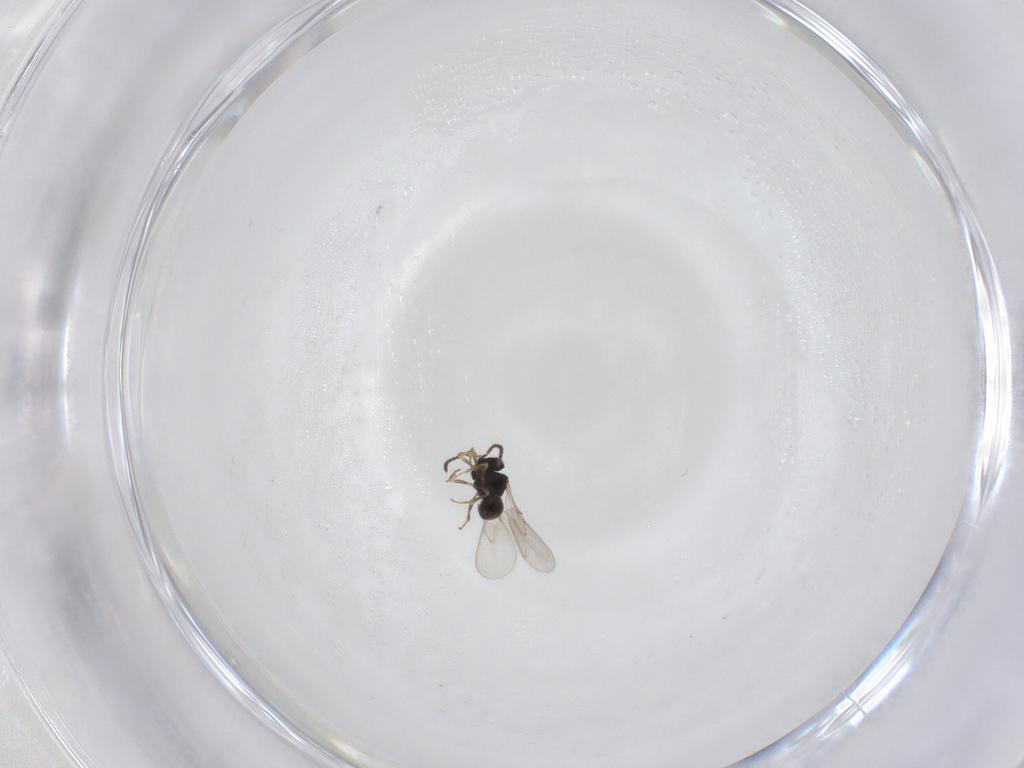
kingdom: Animalia
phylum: Arthropoda
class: Insecta
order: Hymenoptera
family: Scelionidae
